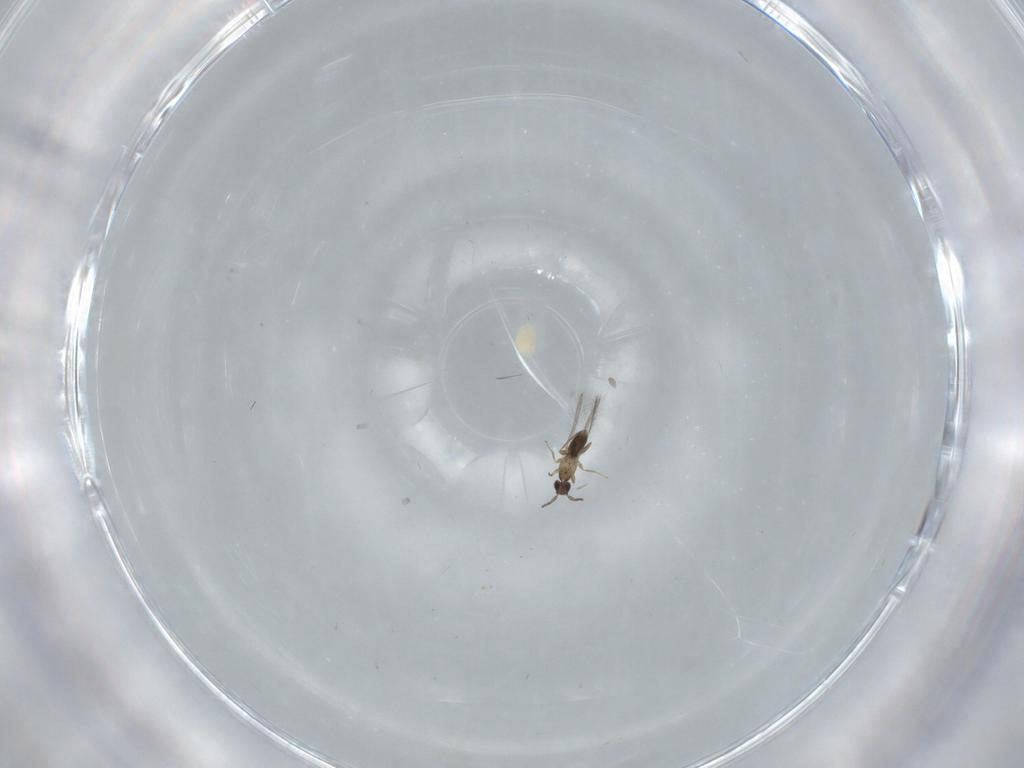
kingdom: Animalia
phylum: Arthropoda
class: Insecta
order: Hymenoptera
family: Mymaridae
